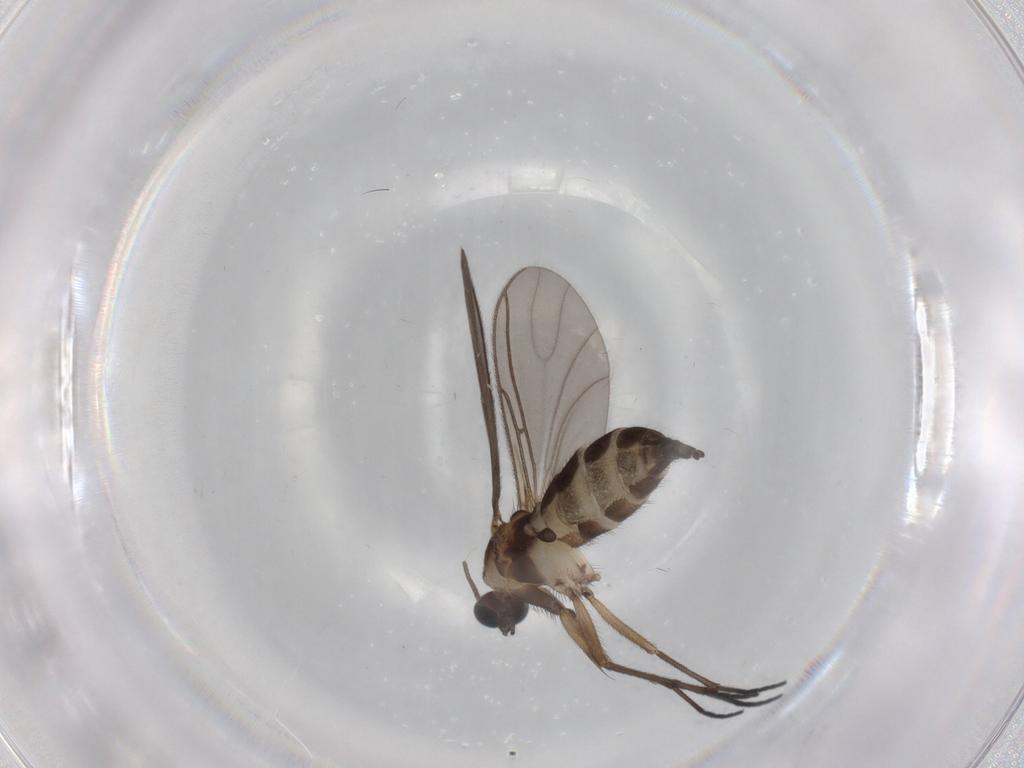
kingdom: Animalia
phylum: Arthropoda
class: Insecta
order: Diptera
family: Sciaridae
